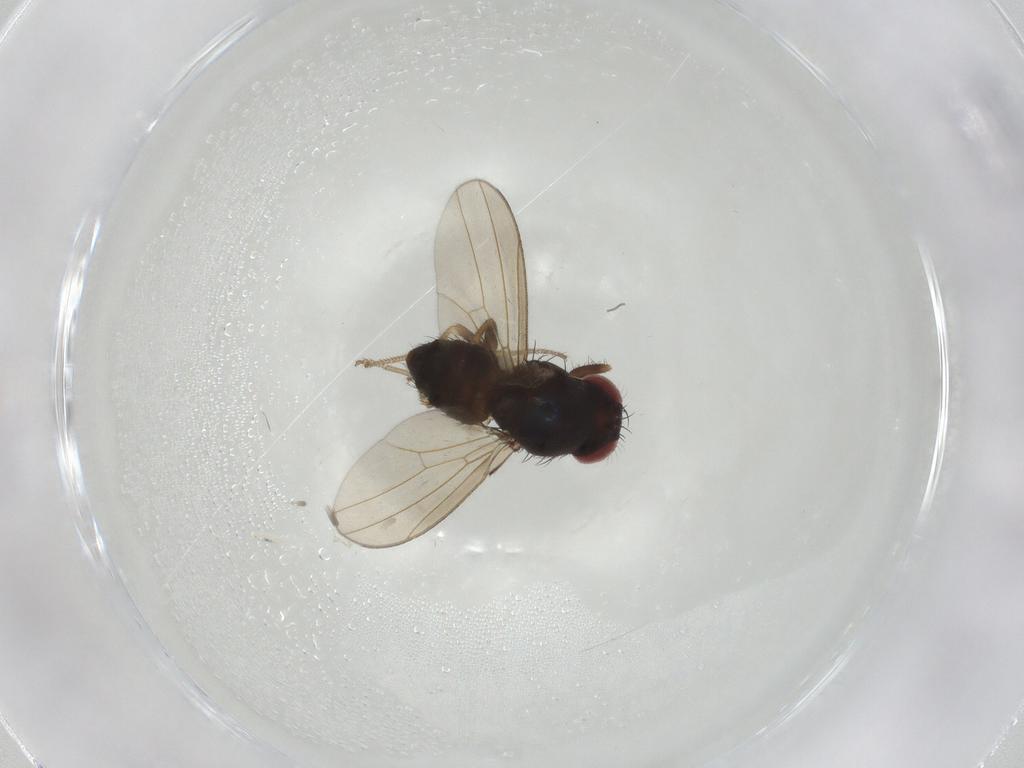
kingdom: Animalia
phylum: Arthropoda
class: Insecta
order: Diptera
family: Drosophilidae
